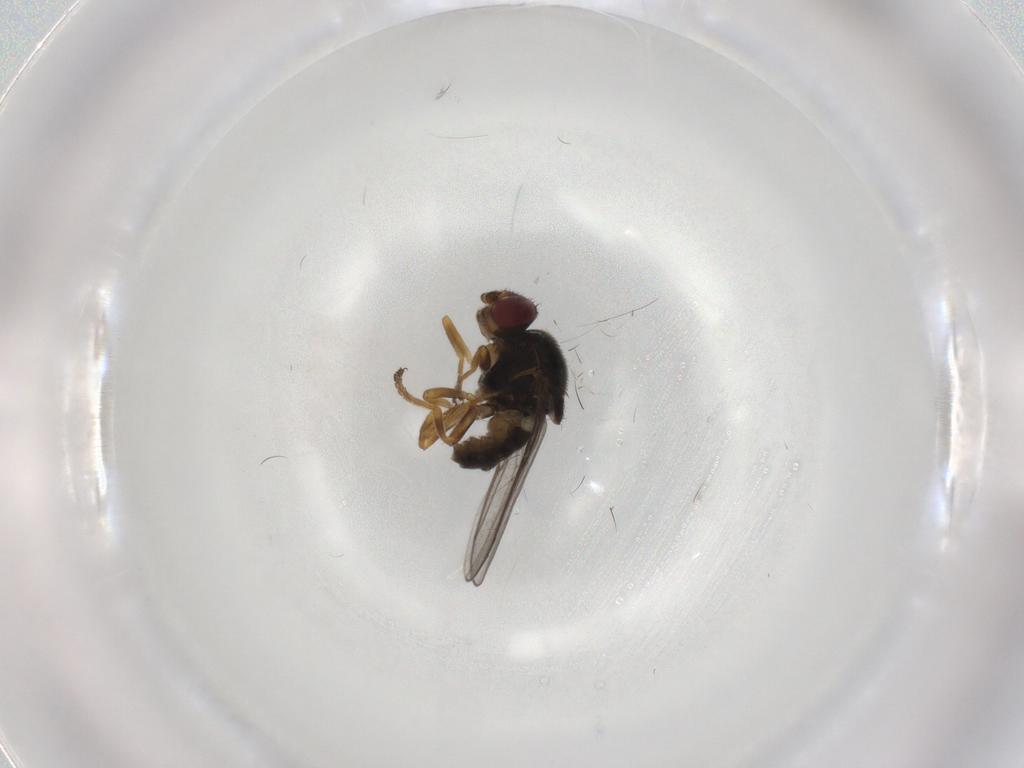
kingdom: Animalia
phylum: Arthropoda
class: Insecta
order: Diptera
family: Chloropidae
